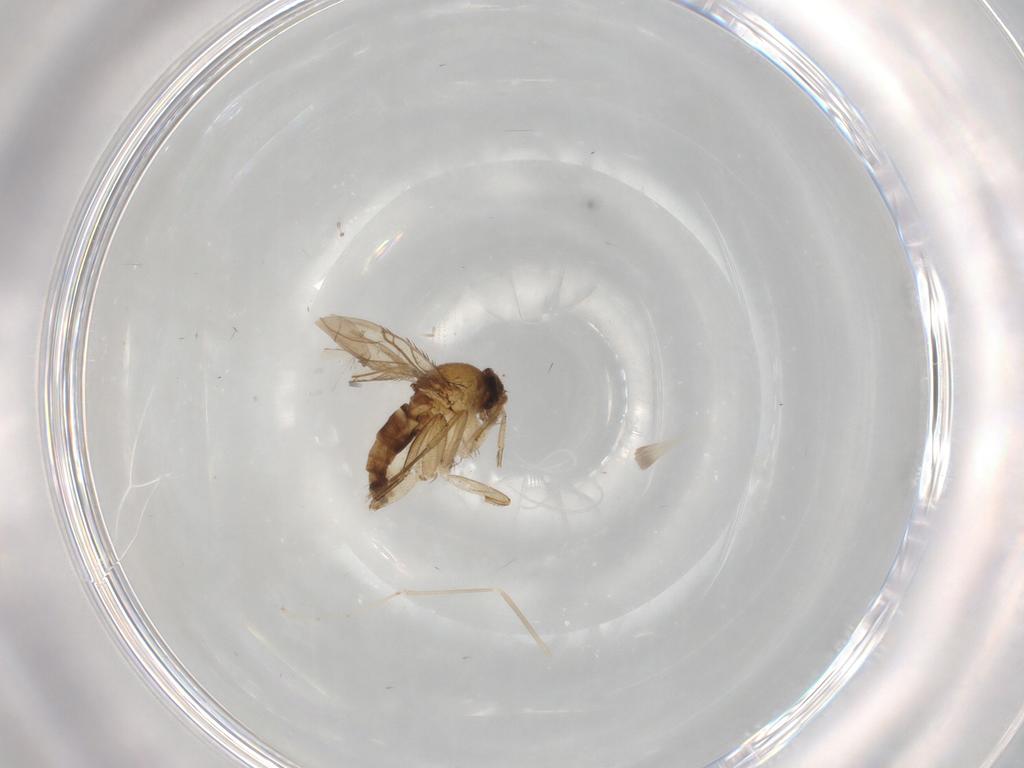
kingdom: Animalia
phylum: Arthropoda
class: Insecta
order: Diptera
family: Phoridae
